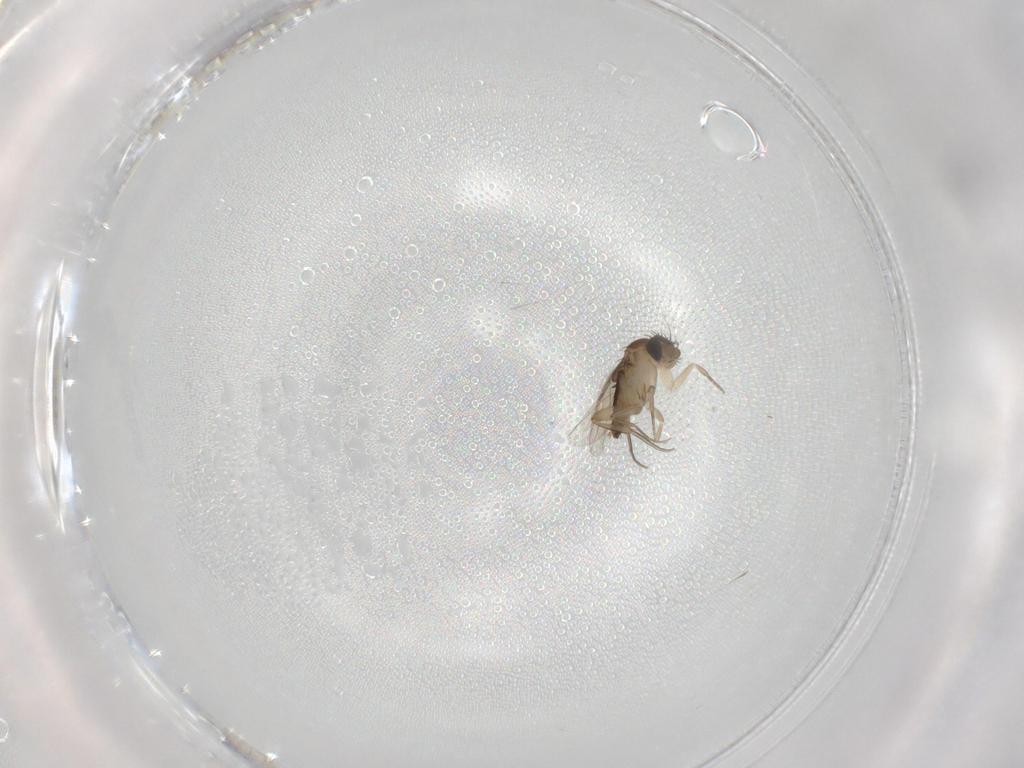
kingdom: Animalia
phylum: Arthropoda
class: Insecta
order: Diptera
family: Phoridae
